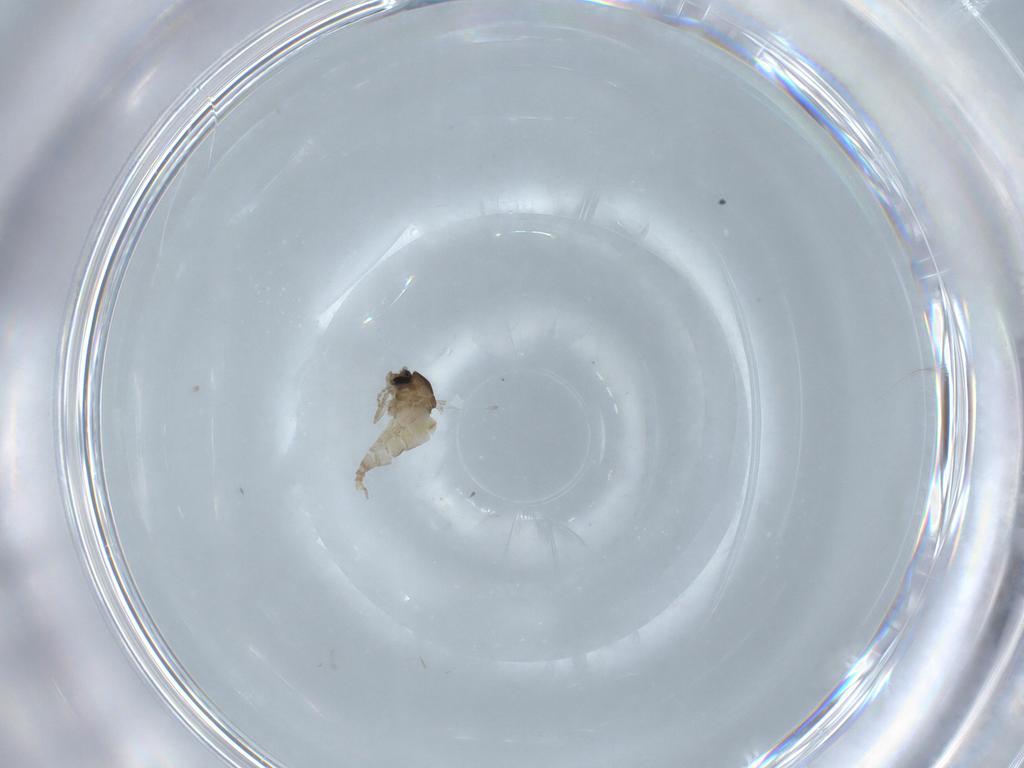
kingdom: Animalia
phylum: Arthropoda
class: Insecta
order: Diptera
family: Cecidomyiidae
